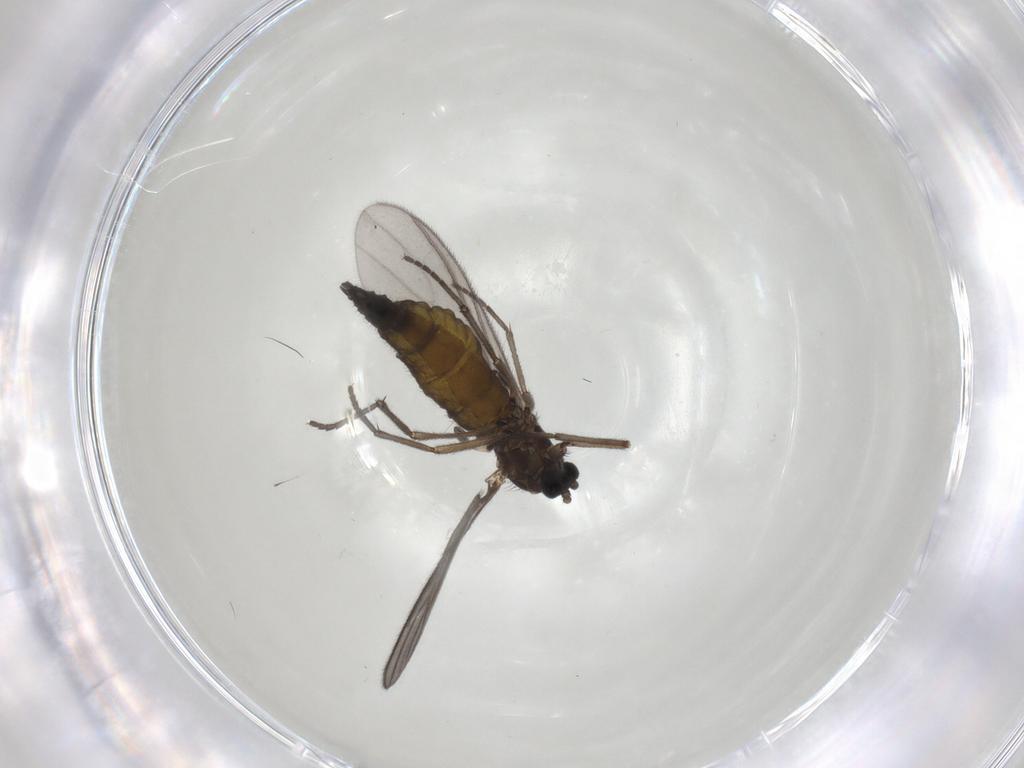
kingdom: Animalia
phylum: Arthropoda
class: Insecta
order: Diptera
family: Sciaridae
